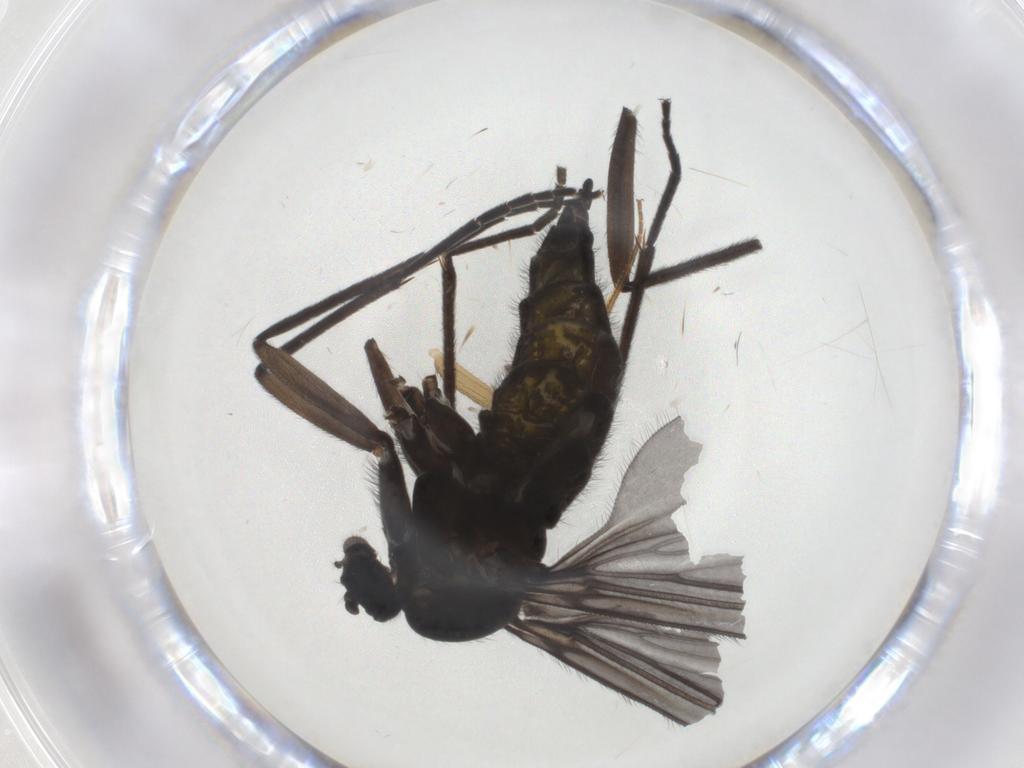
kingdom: Animalia
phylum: Arthropoda
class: Insecta
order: Diptera
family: Sciaridae
